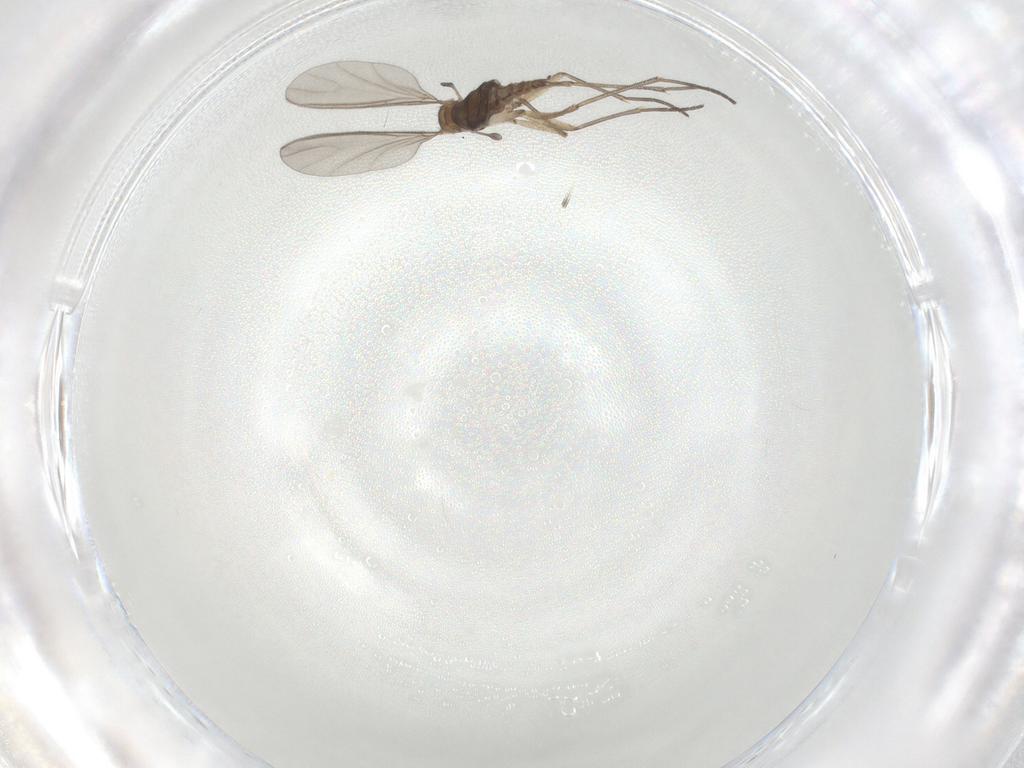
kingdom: Animalia
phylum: Arthropoda
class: Insecta
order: Diptera
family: Sciaridae
